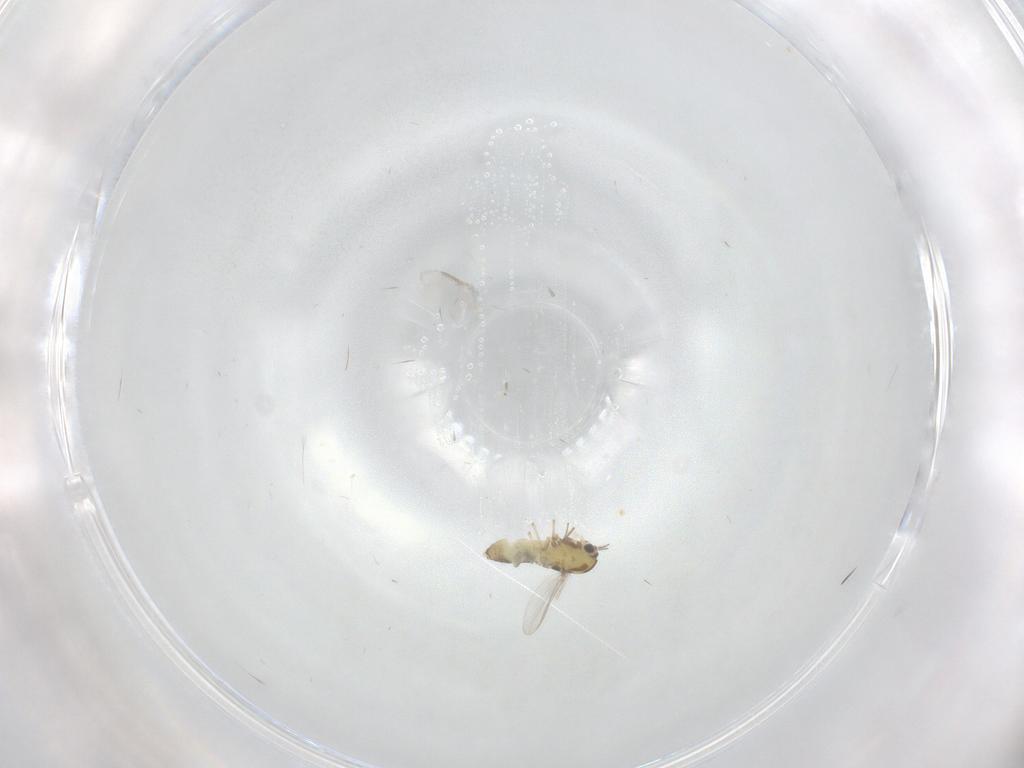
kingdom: Animalia
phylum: Arthropoda
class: Insecta
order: Diptera
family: Chironomidae
